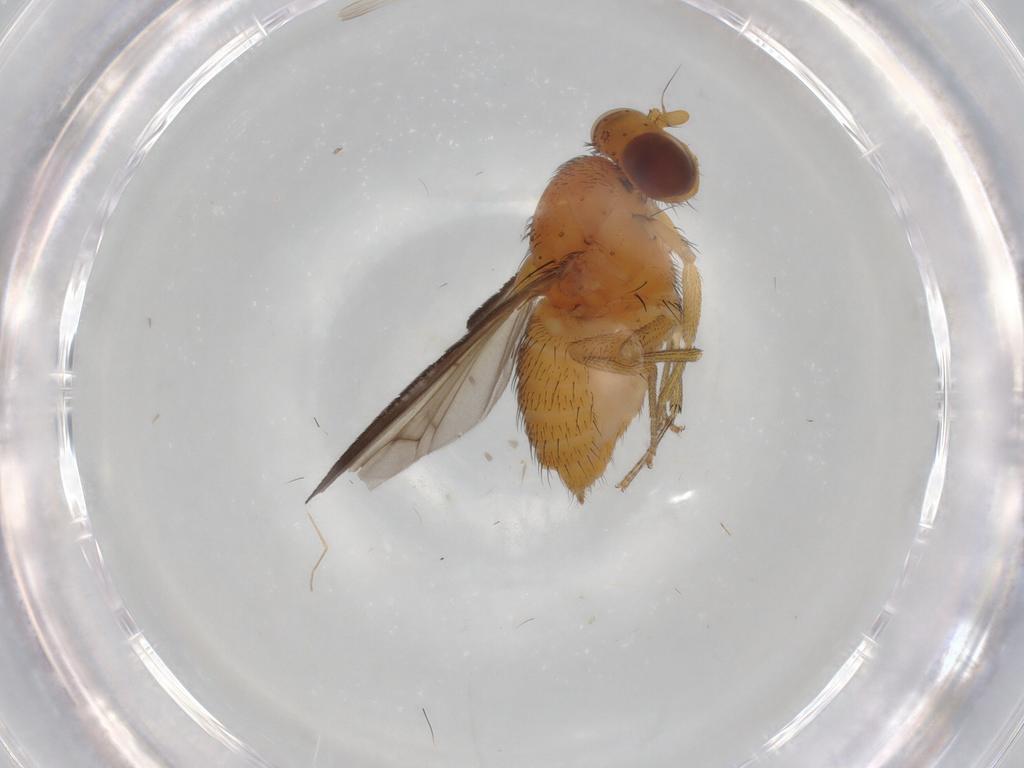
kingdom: Animalia
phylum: Arthropoda
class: Insecta
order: Diptera
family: Lauxaniidae
